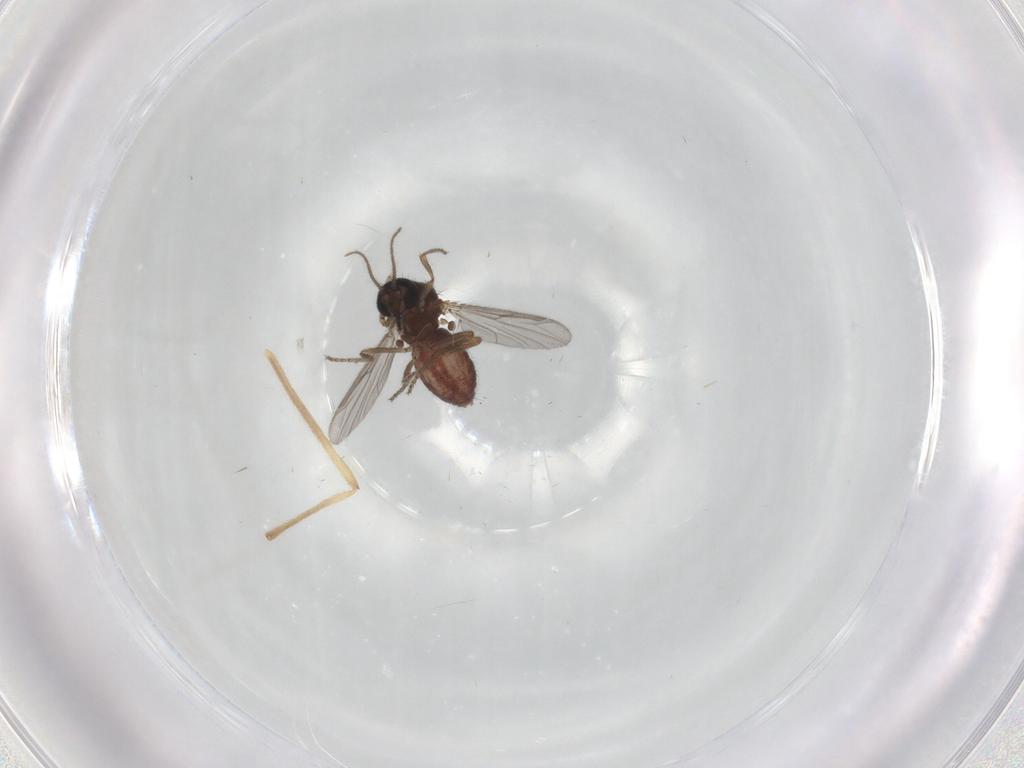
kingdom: Animalia
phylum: Arthropoda
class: Insecta
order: Diptera
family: Chironomidae
